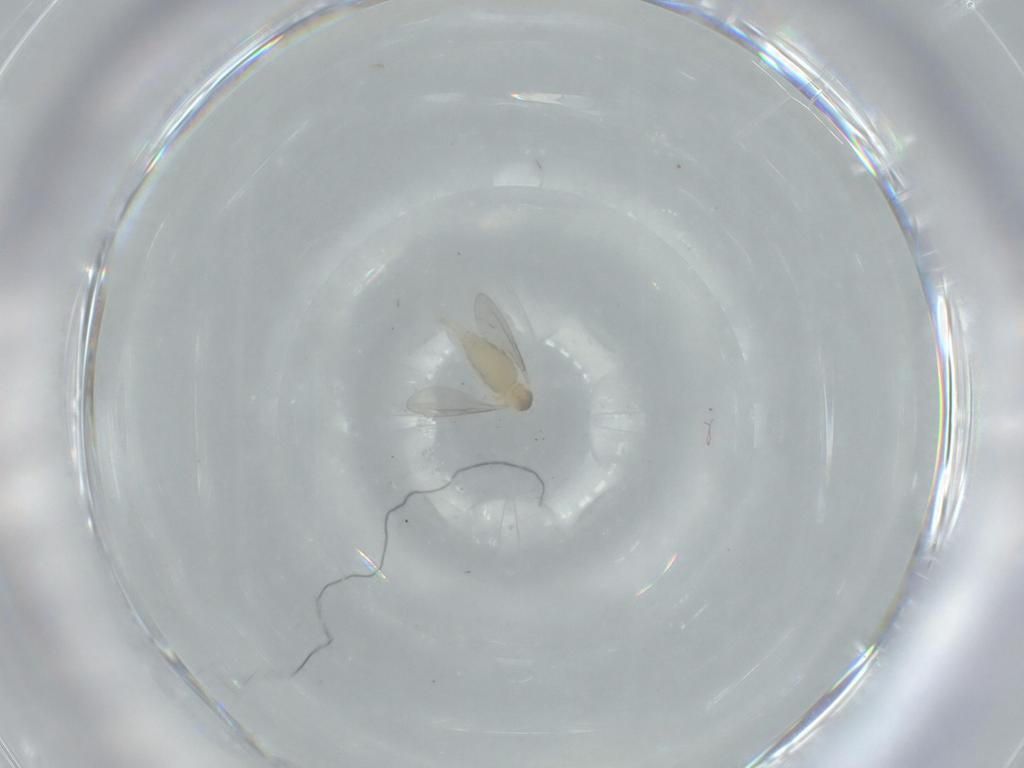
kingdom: Animalia
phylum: Arthropoda
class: Insecta
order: Diptera
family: Cecidomyiidae
